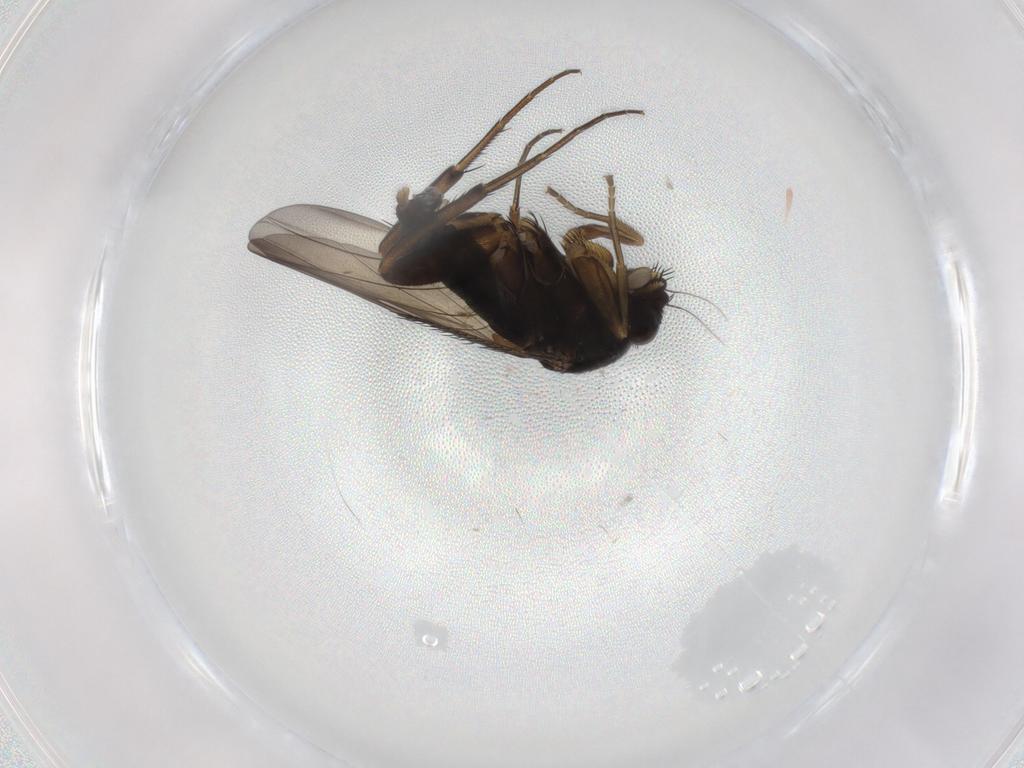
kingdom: Animalia
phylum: Arthropoda
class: Insecta
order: Diptera
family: Phoridae
